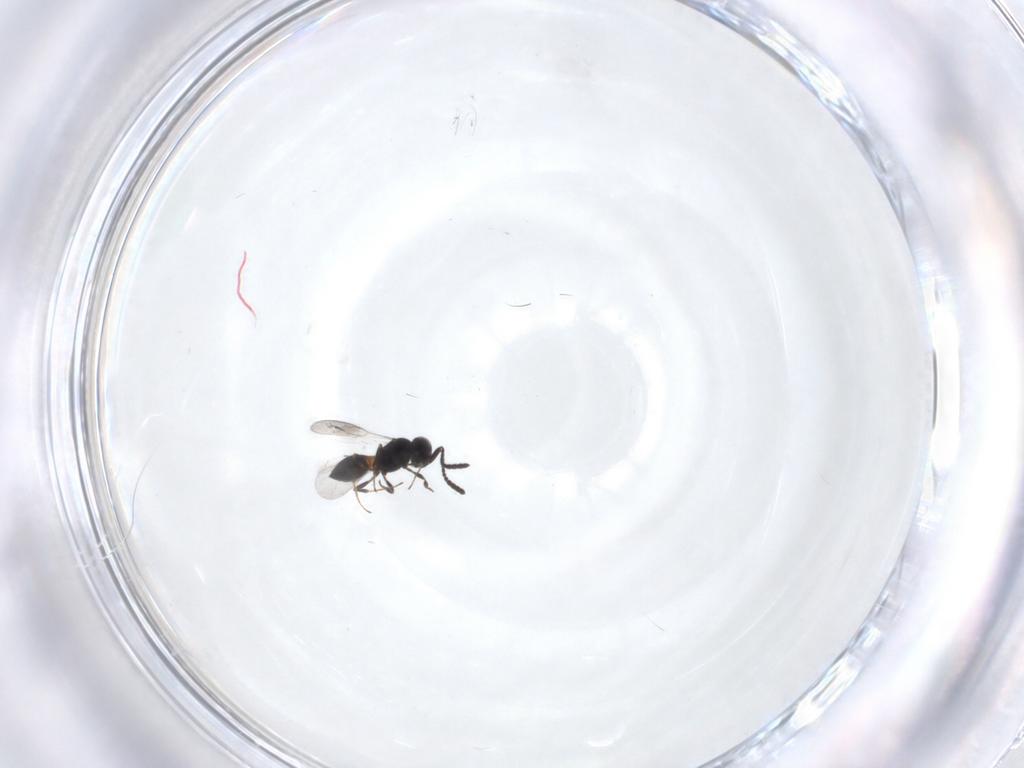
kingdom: Animalia
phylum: Arthropoda
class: Insecta
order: Hymenoptera
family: Scelionidae
